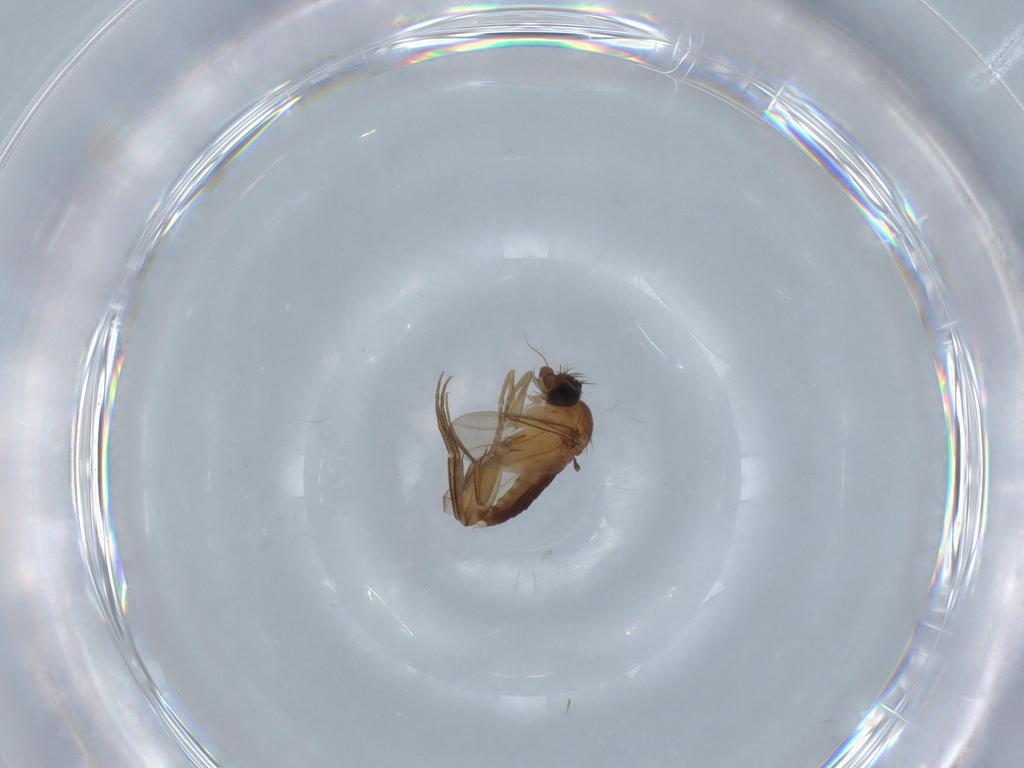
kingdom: Animalia
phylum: Arthropoda
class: Insecta
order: Diptera
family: Phoridae
